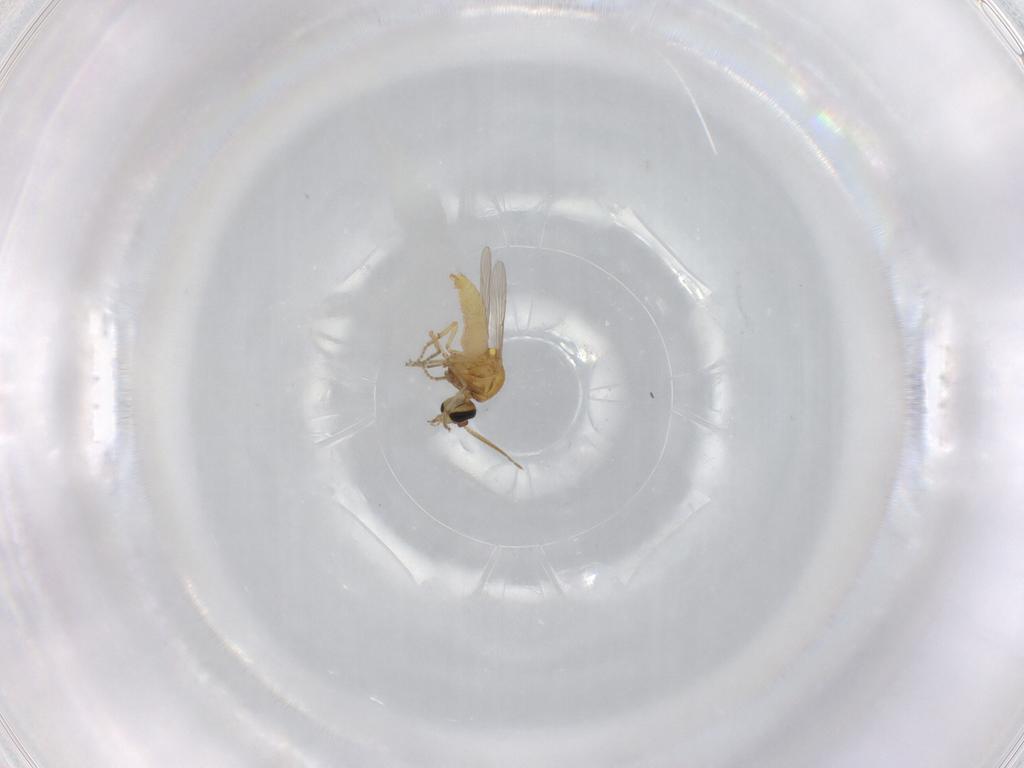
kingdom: Animalia
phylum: Arthropoda
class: Insecta
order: Diptera
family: Ceratopogonidae
